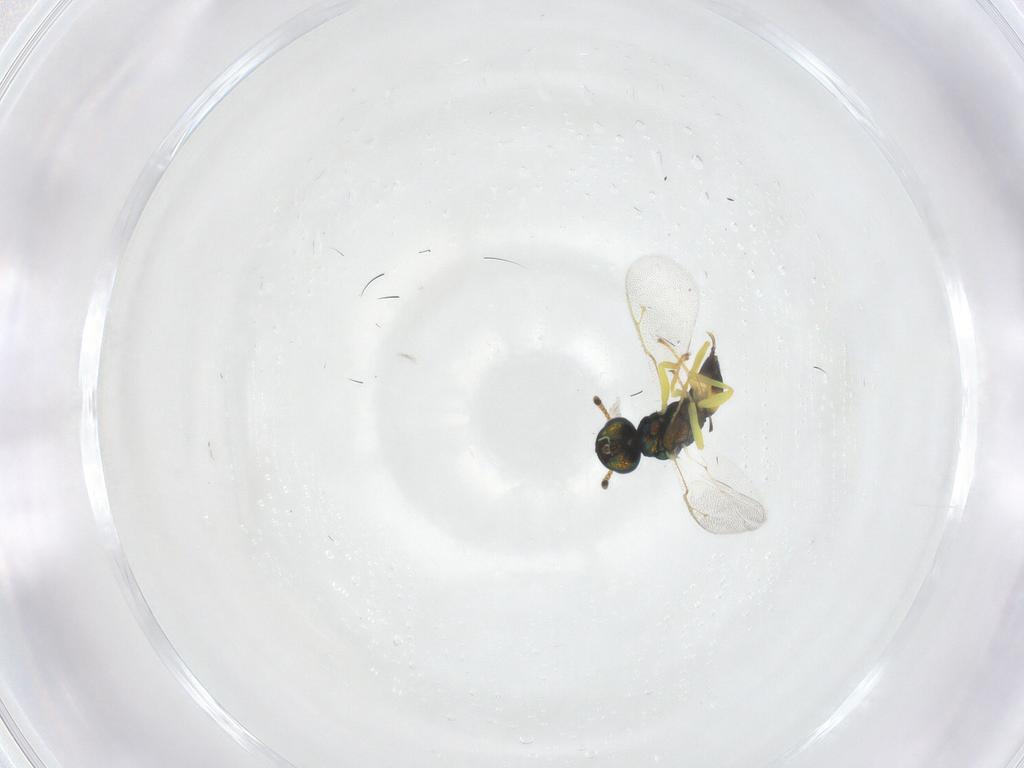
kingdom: Animalia
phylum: Arthropoda
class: Insecta
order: Hymenoptera
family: Pteromalidae
